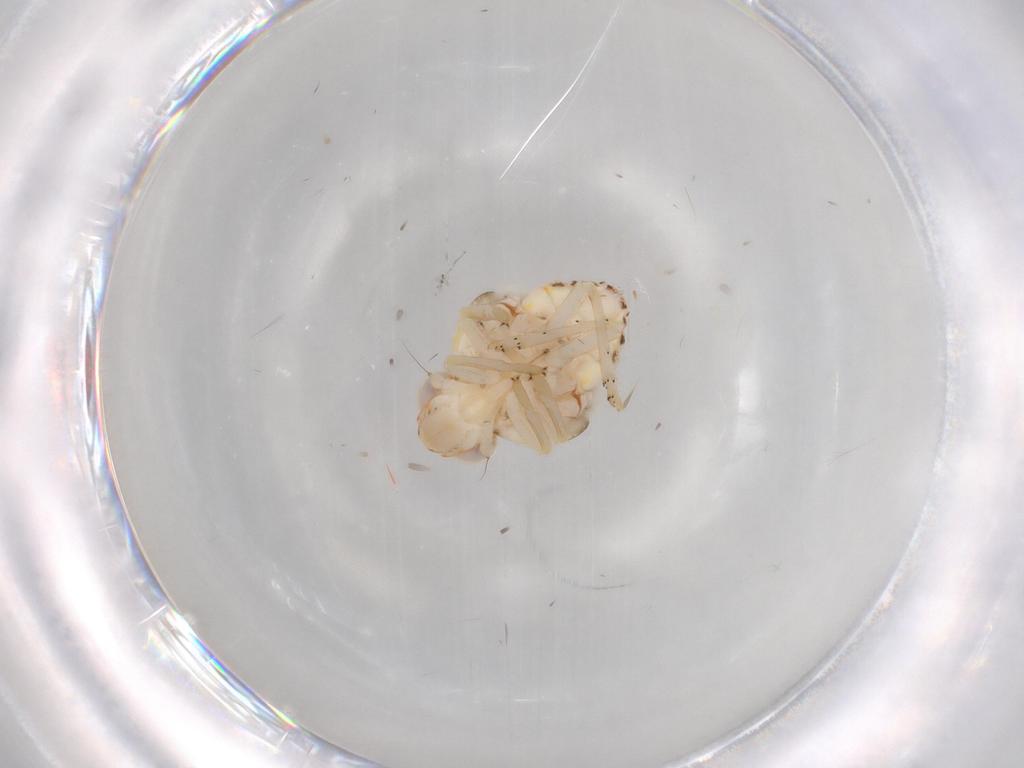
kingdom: Animalia
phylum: Arthropoda
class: Insecta
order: Hemiptera
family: Nogodinidae
